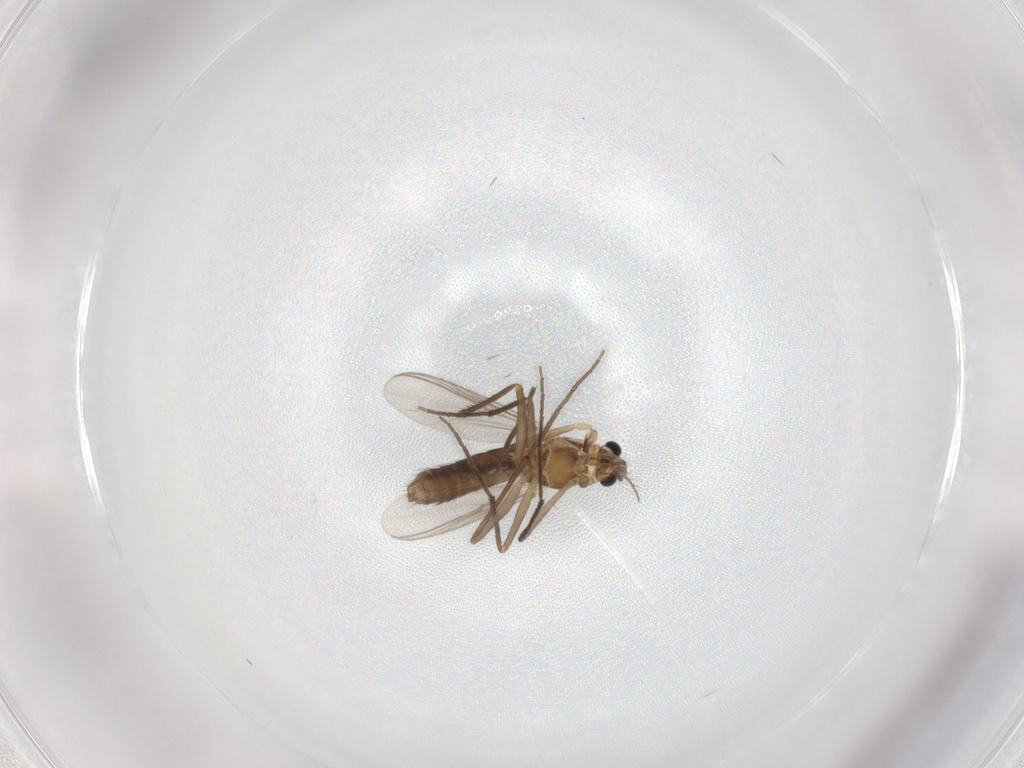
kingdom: Animalia
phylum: Arthropoda
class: Insecta
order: Diptera
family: Chironomidae
